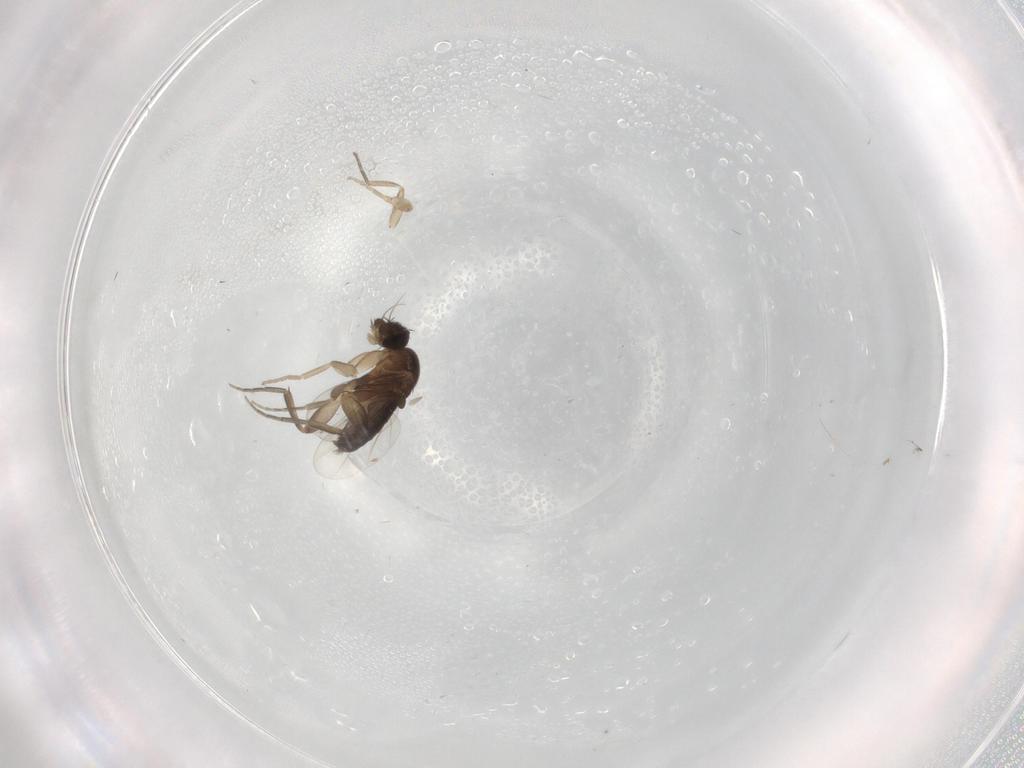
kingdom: Animalia
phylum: Arthropoda
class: Insecta
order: Diptera
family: Phoridae
